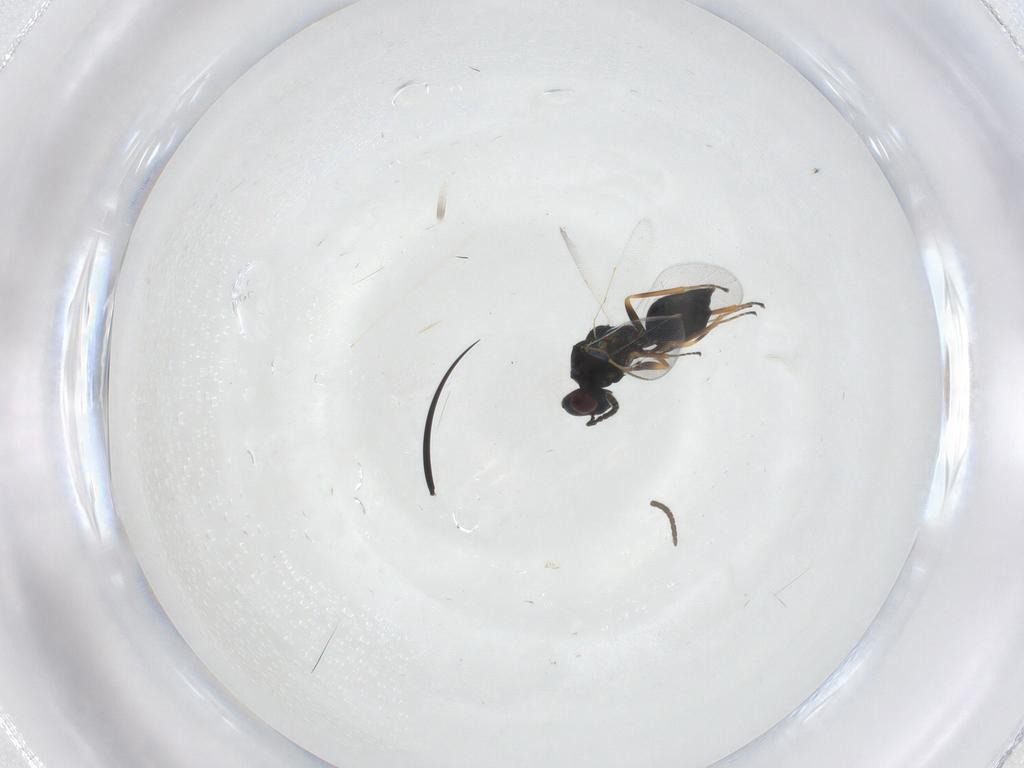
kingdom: Animalia
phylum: Arthropoda
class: Insecta
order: Hymenoptera
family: Pteromalidae
